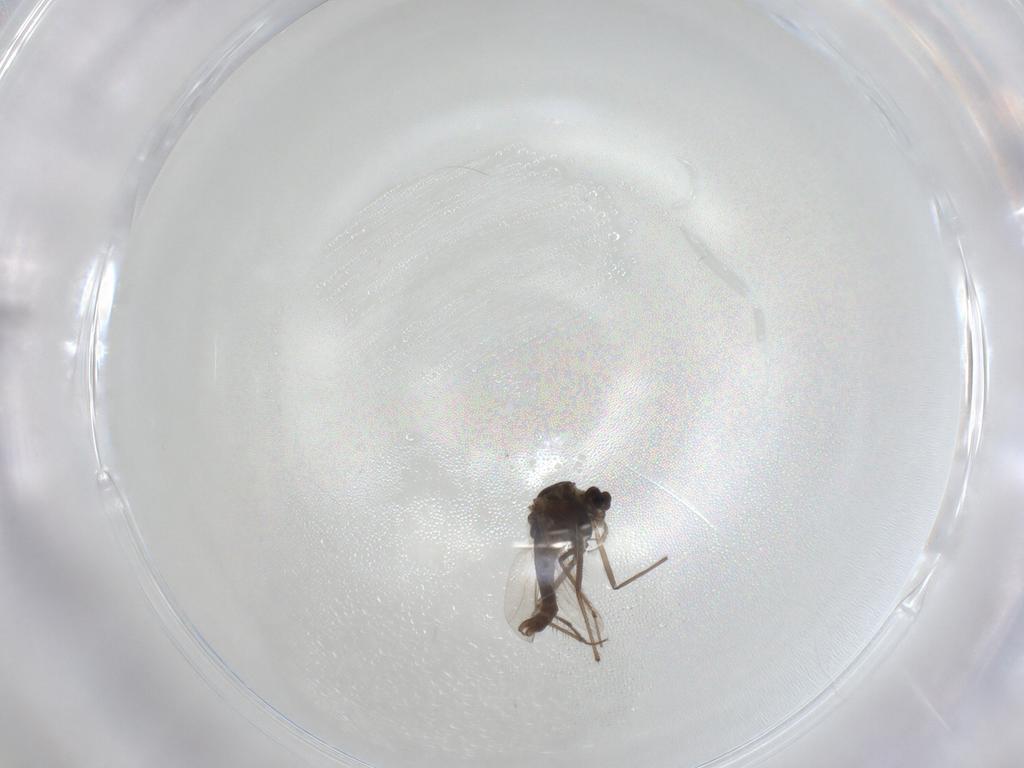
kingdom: Animalia
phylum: Arthropoda
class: Insecta
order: Diptera
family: Chironomidae
